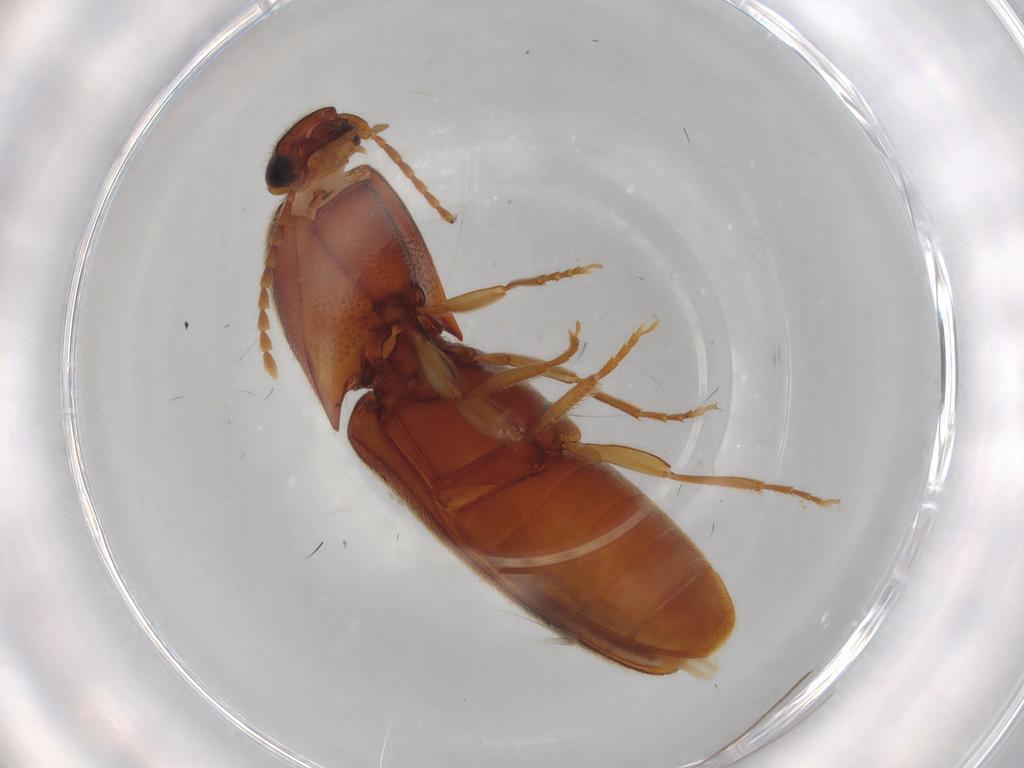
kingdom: Animalia
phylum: Arthropoda
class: Insecta
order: Coleoptera
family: Elateridae
